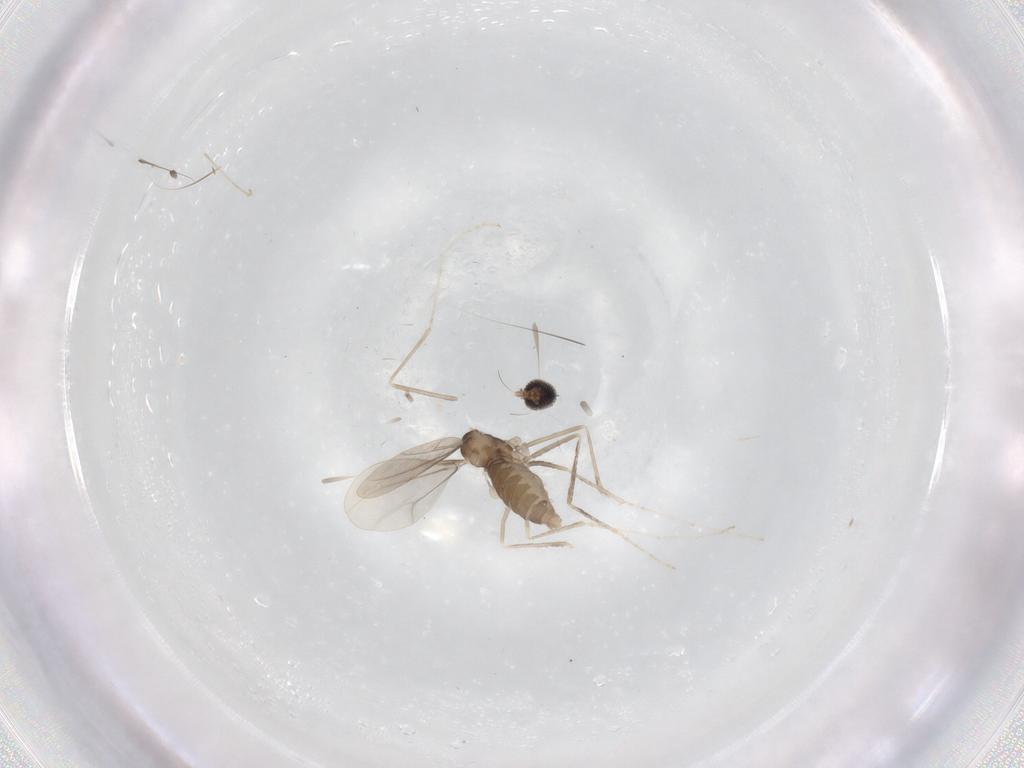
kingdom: Animalia
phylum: Arthropoda
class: Insecta
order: Diptera
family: Cecidomyiidae
